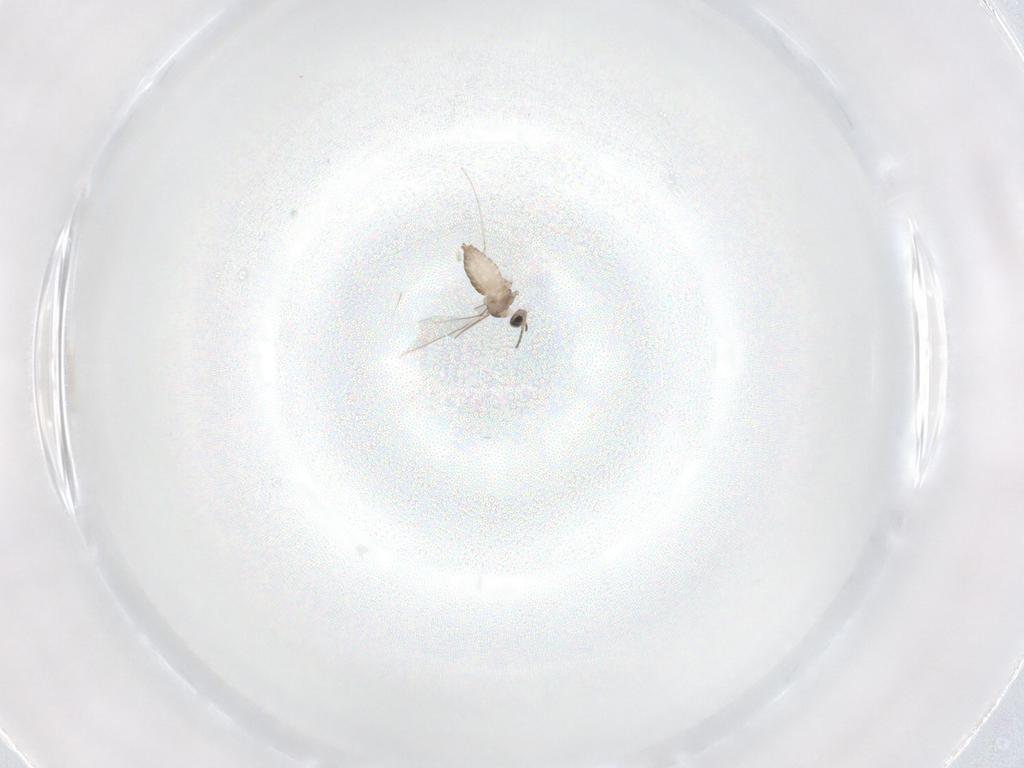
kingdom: Animalia
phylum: Arthropoda
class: Insecta
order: Diptera
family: Cecidomyiidae
